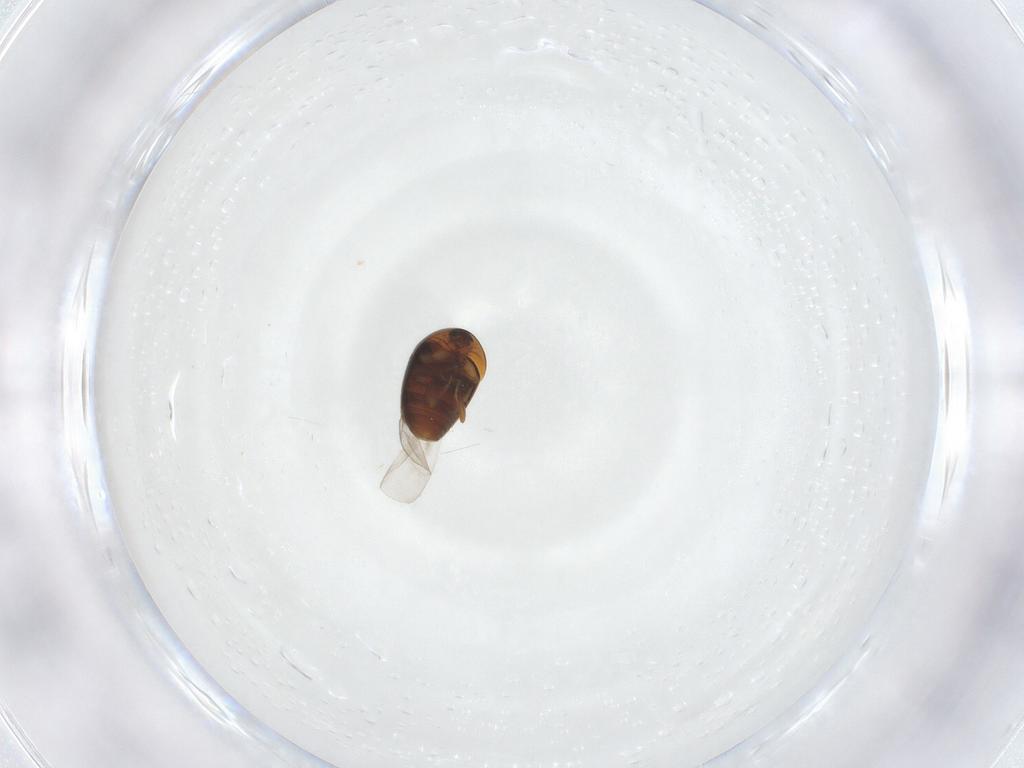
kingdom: Animalia
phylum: Arthropoda
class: Insecta
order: Coleoptera
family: Corylophidae
